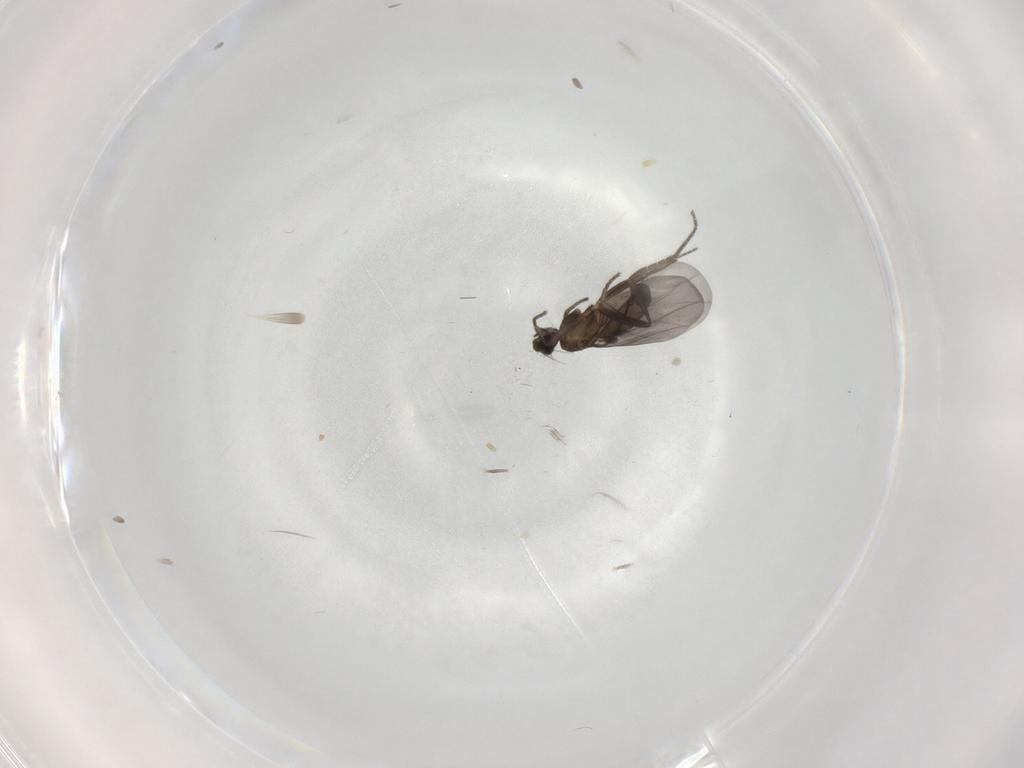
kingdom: Animalia
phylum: Arthropoda
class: Insecta
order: Diptera
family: Phoridae
